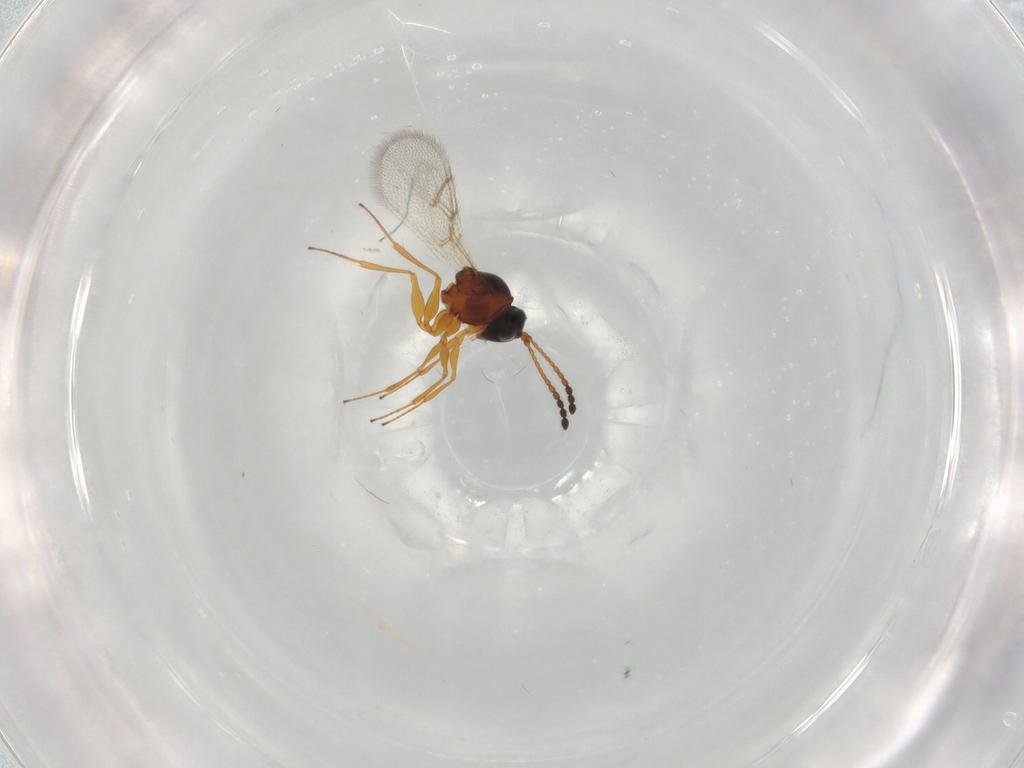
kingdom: Animalia
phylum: Arthropoda
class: Insecta
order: Hymenoptera
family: Figitidae
